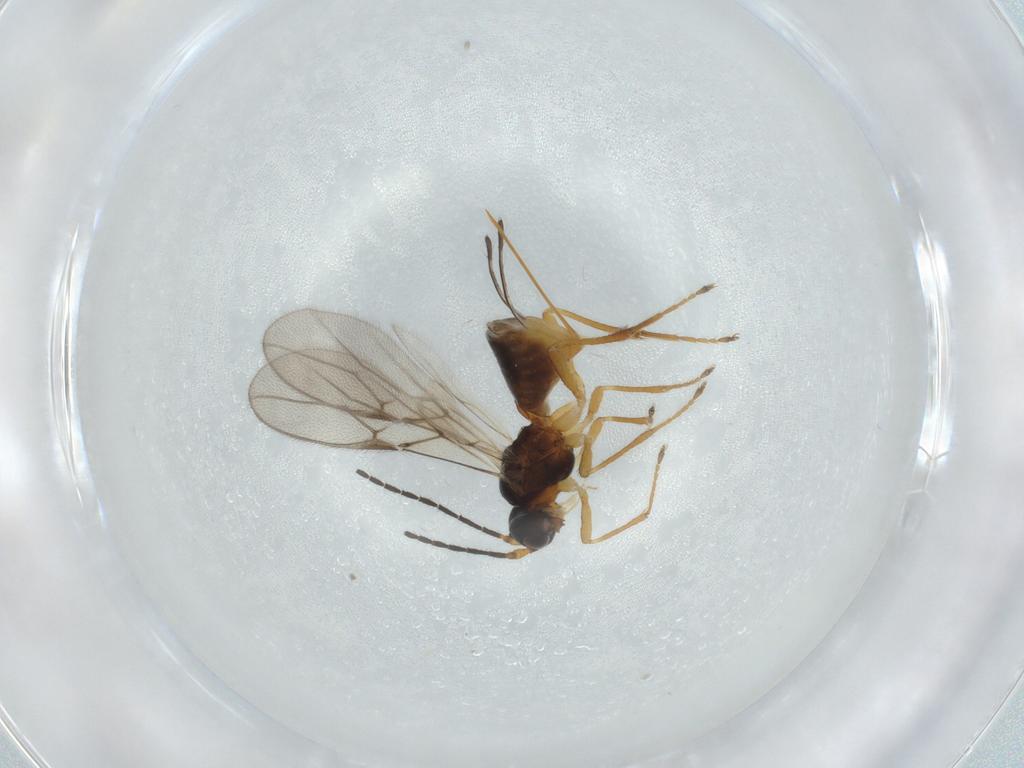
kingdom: Animalia
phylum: Arthropoda
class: Insecta
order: Hymenoptera
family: Braconidae
